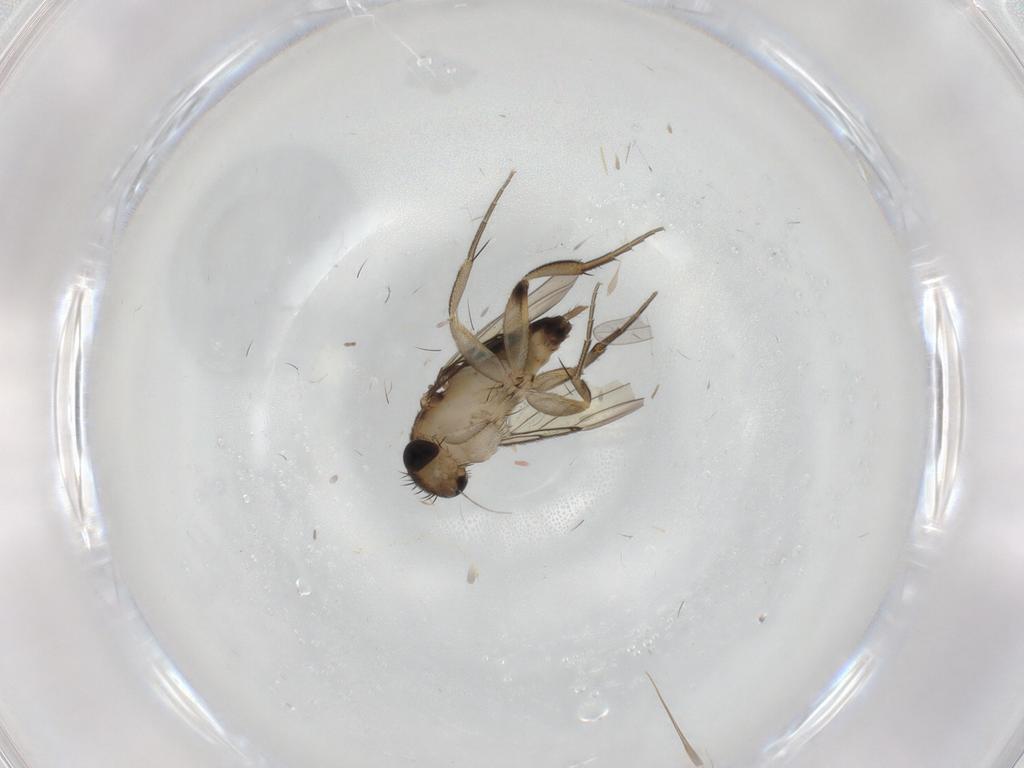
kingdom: Animalia
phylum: Arthropoda
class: Insecta
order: Diptera
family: Phoridae
